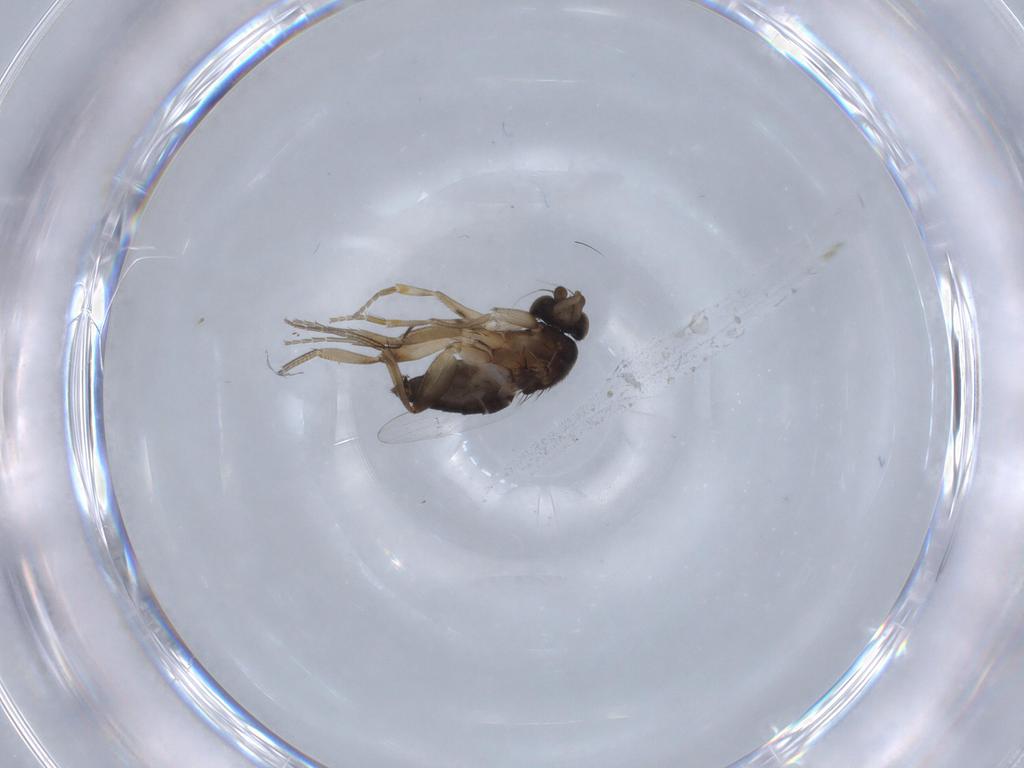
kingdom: Animalia
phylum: Arthropoda
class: Insecta
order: Diptera
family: Phoridae
